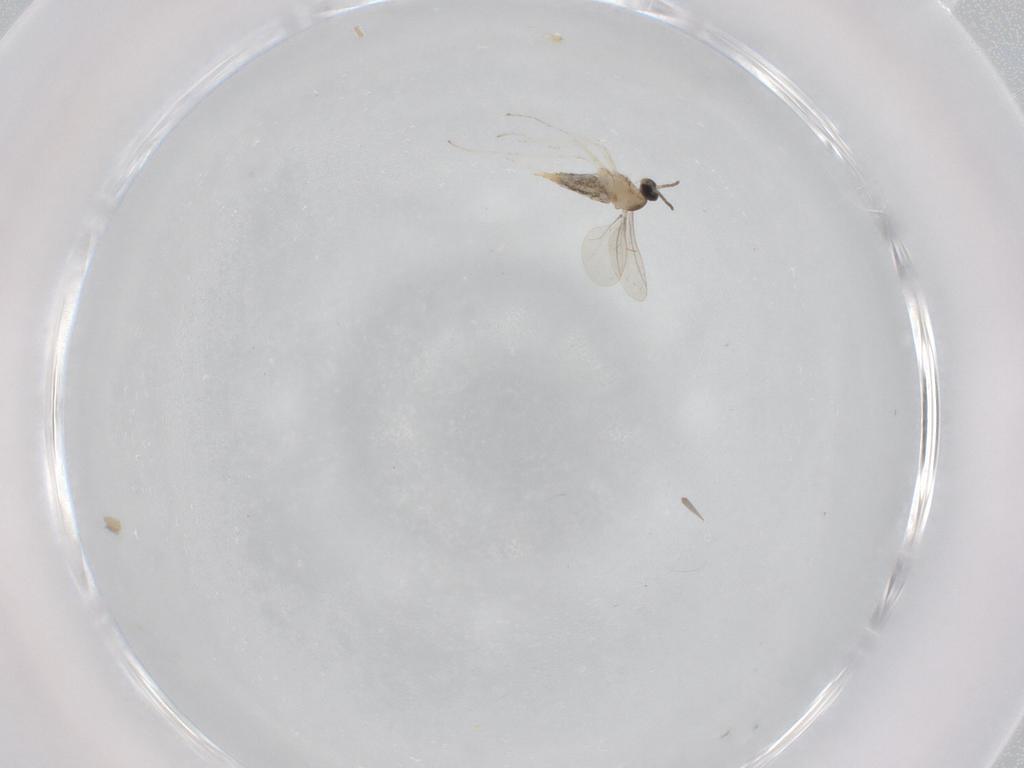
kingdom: Animalia
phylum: Arthropoda
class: Insecta
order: Diptera
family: Cecidomyiidae
